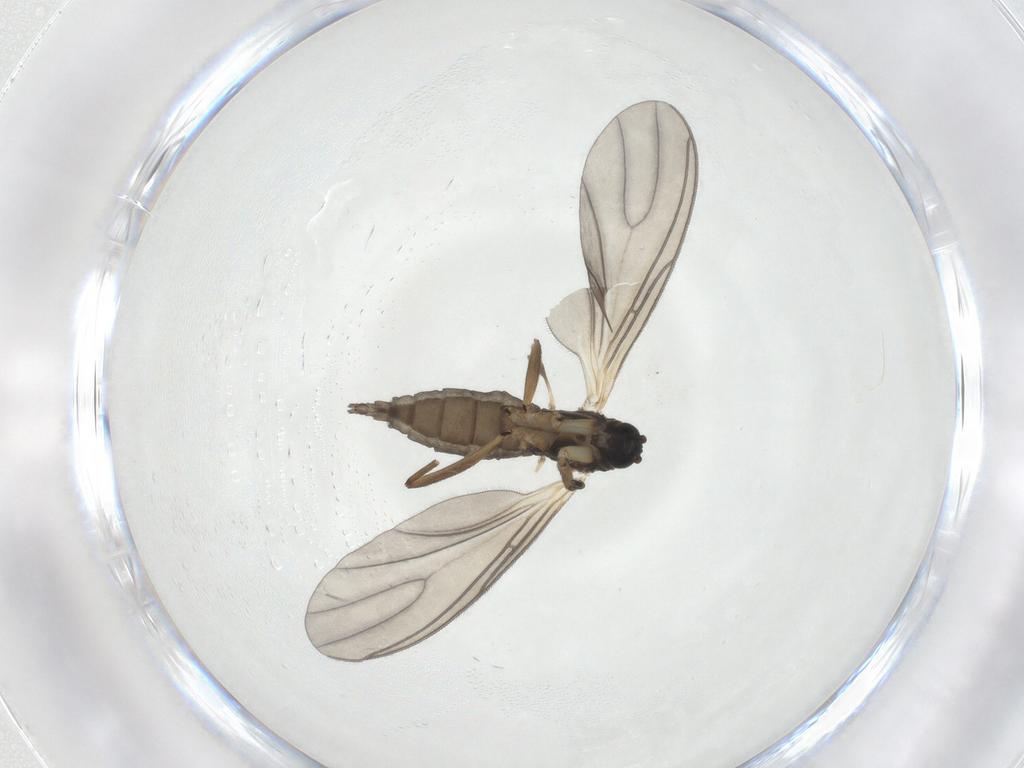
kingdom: Animalia
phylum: Arthropoda
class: Insecta
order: Diptera
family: Sciaridae
